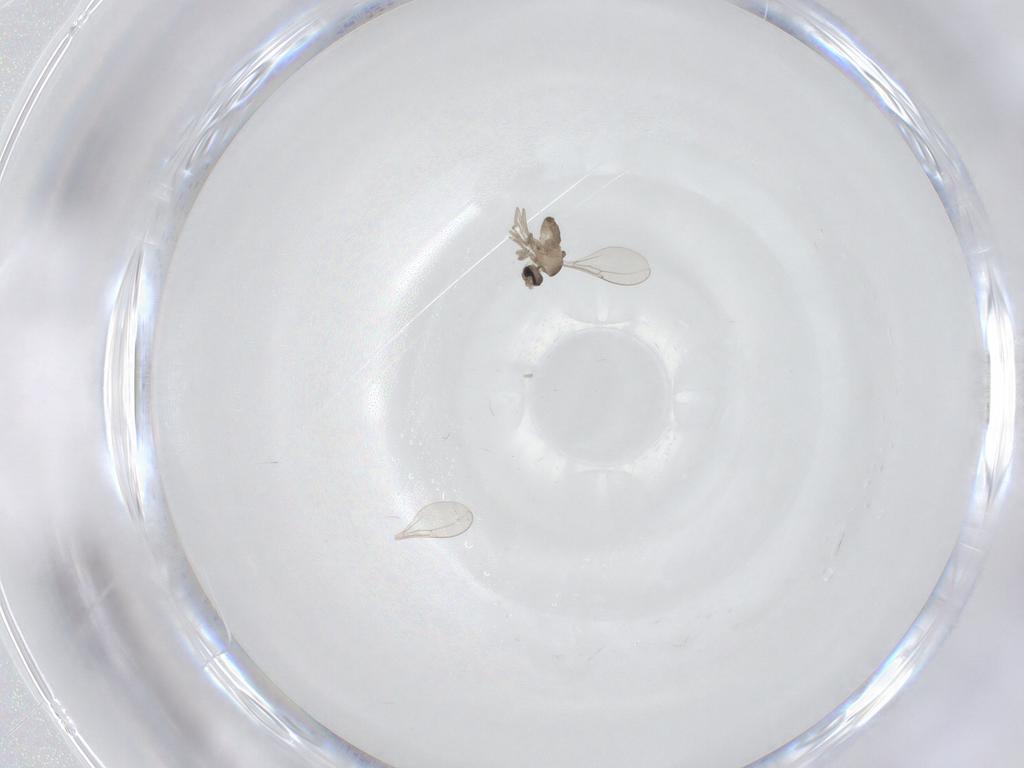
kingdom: Animalia
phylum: Arthropoda
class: Insecta
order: Diptera
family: Cecidomyiidae
